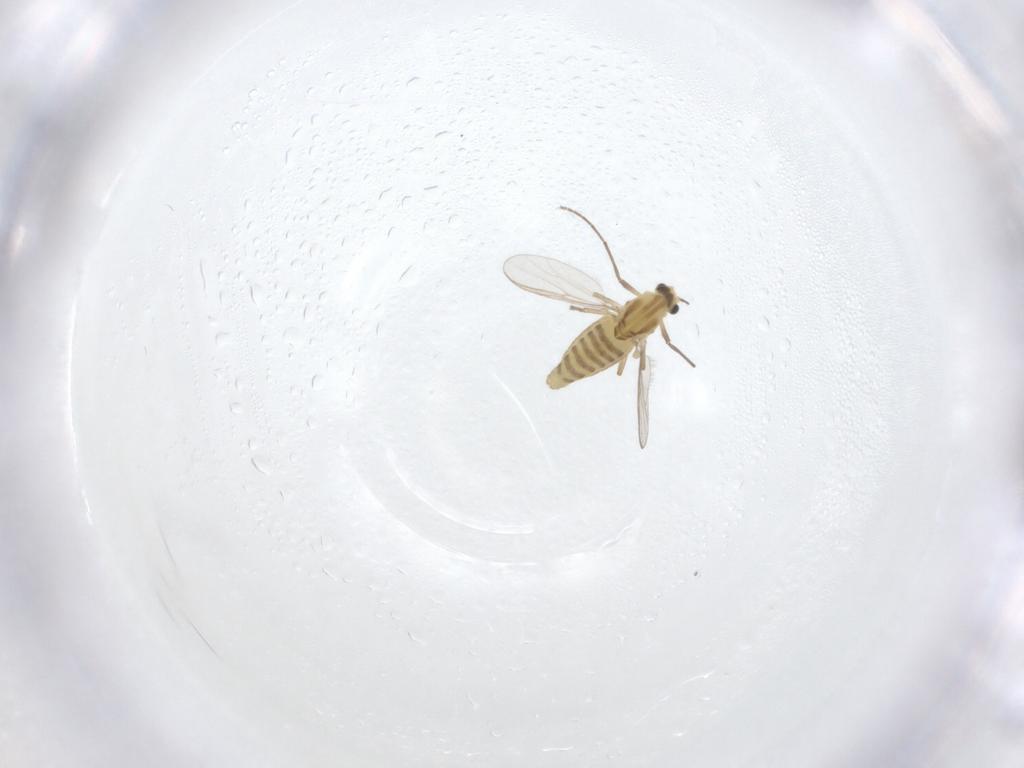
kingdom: Animalia
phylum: Arthropoda
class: Insecta
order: Diptera
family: Chironomidae
